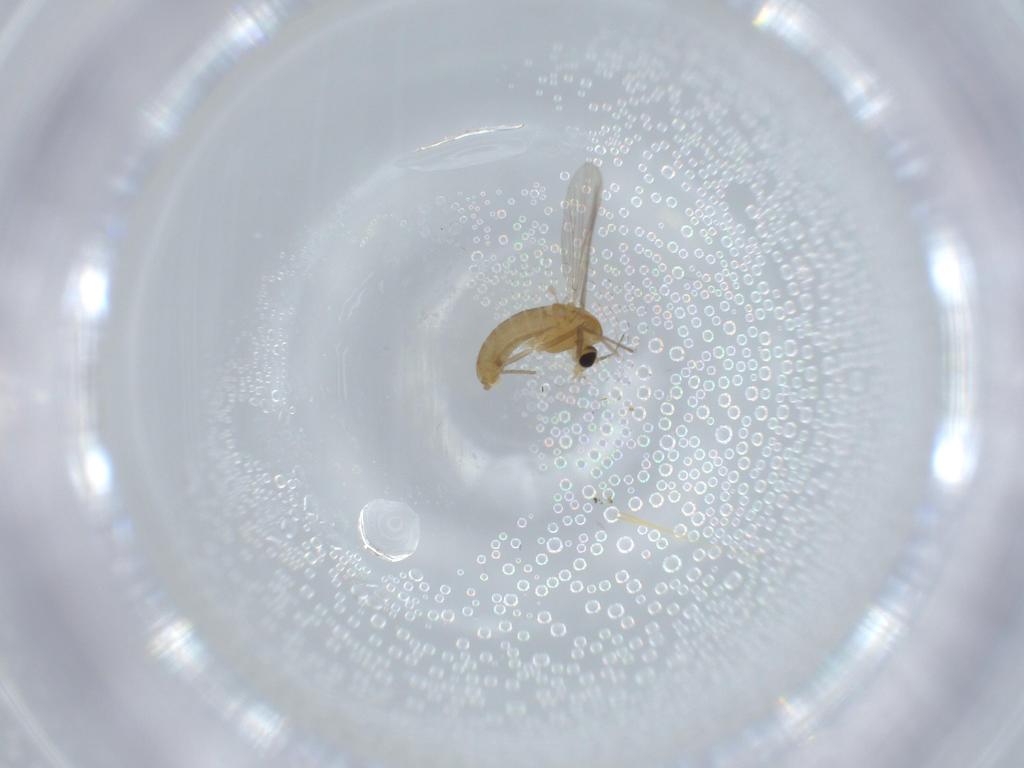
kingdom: Animalia
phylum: Arthropoda
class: Insecta
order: Diptera
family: Chironomidae
